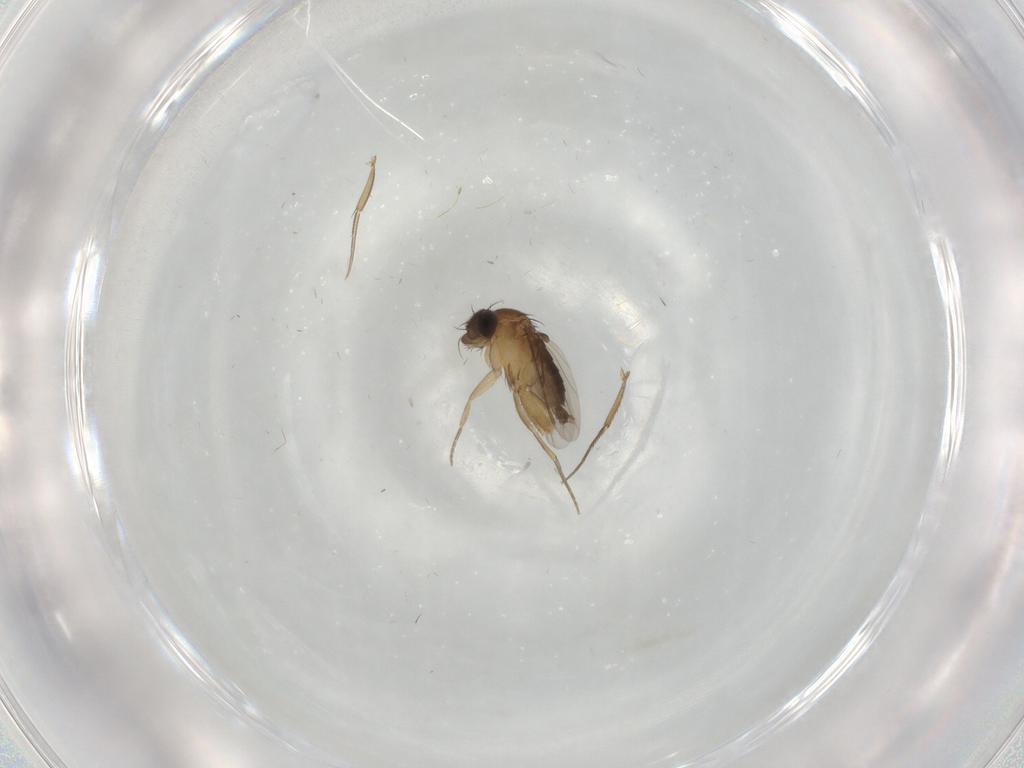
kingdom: Animalia
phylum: Arthropoda
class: Insecta
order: Diptera
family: Phoridae
